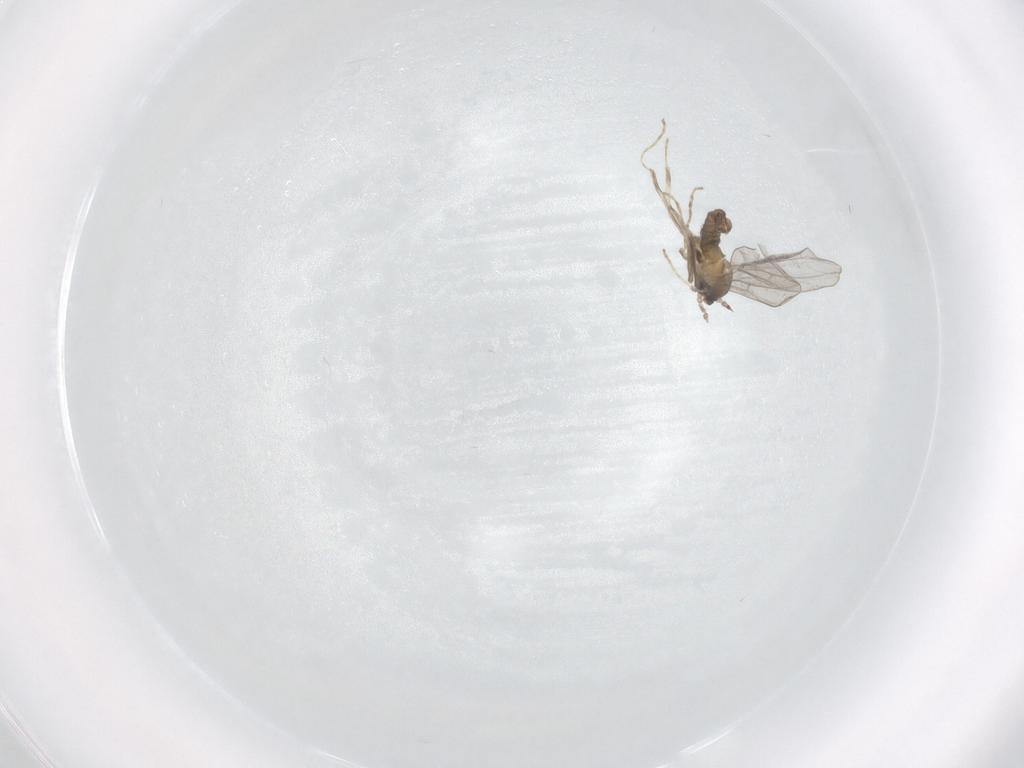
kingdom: Animalia
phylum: Arthropoda
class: Insecta
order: Diptera
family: Cecidomyiidae
